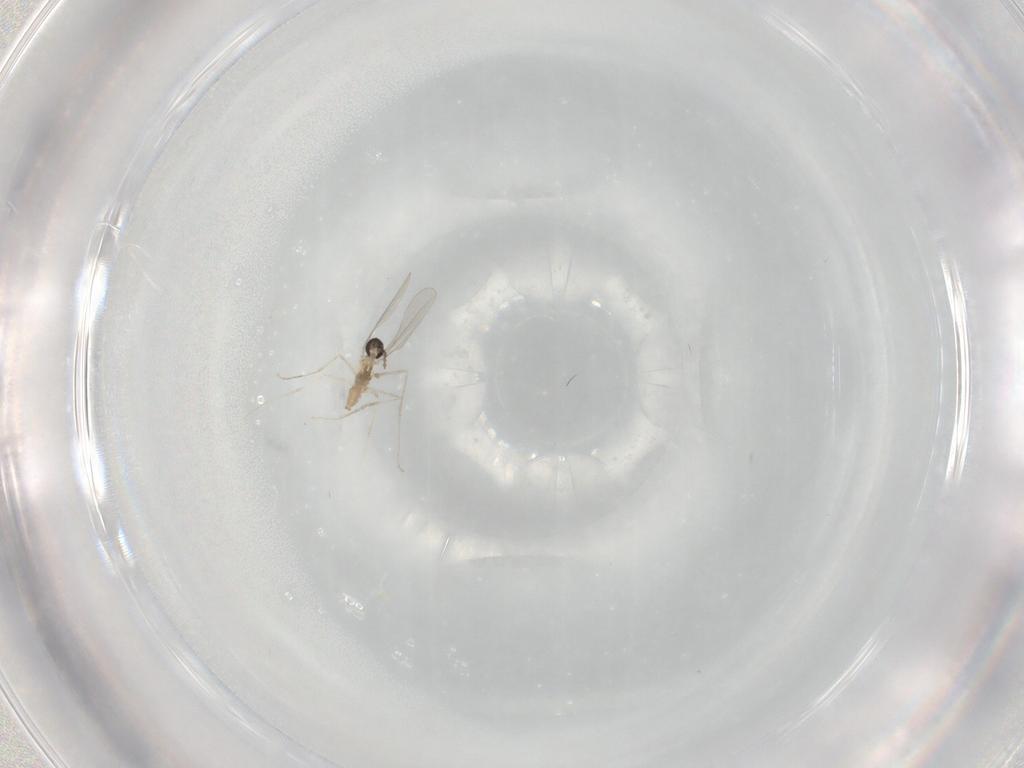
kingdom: Animalia
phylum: Arthropoda
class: Insecta
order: Diptera
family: Cecidomyiidae
